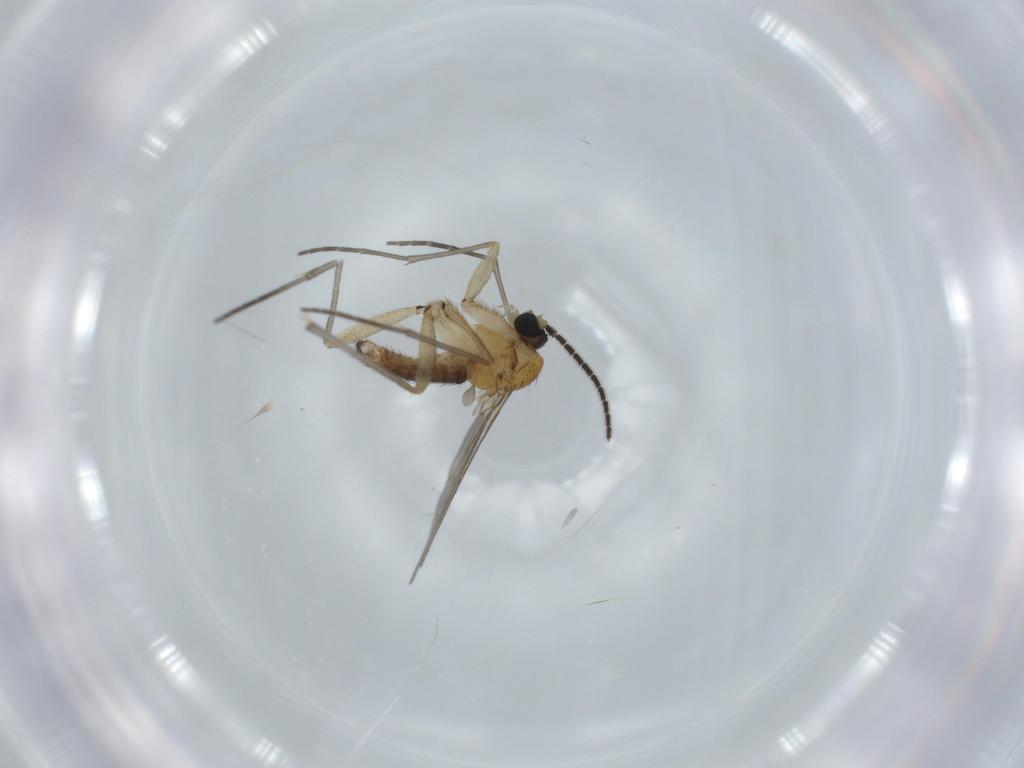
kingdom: Animalia
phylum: Arthropoda
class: Insecta
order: Diptera
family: Sciaridae
